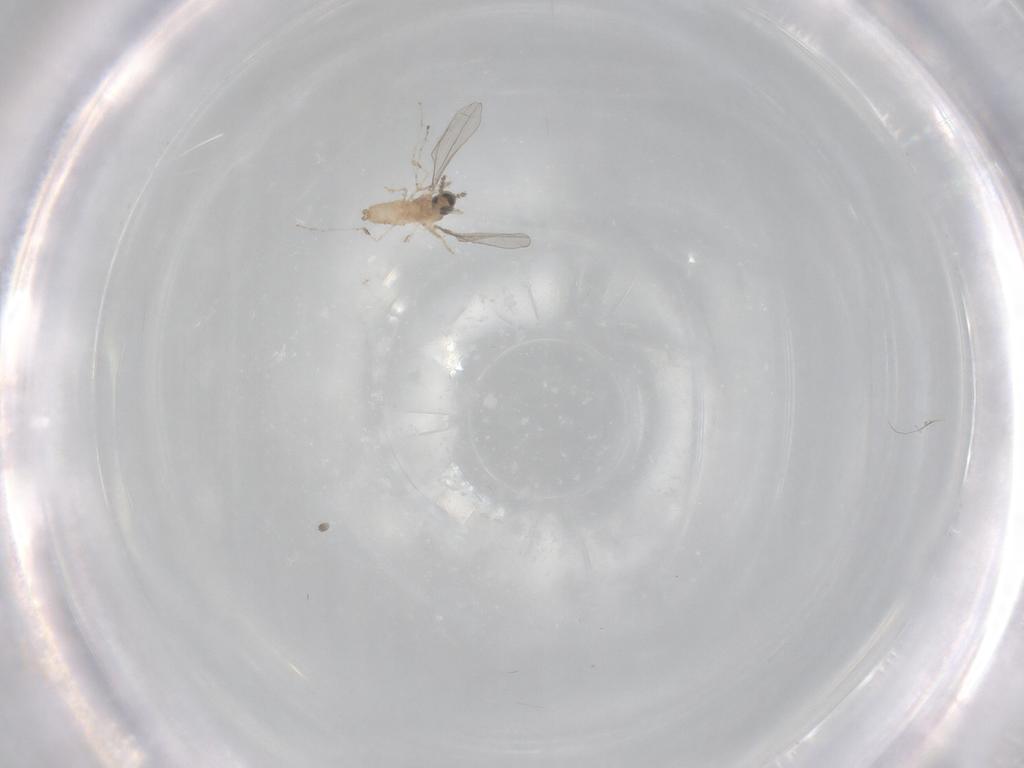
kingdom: Animalia
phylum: Arthropoda
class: Insecta
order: Diptera
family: Cecidomyiidae
